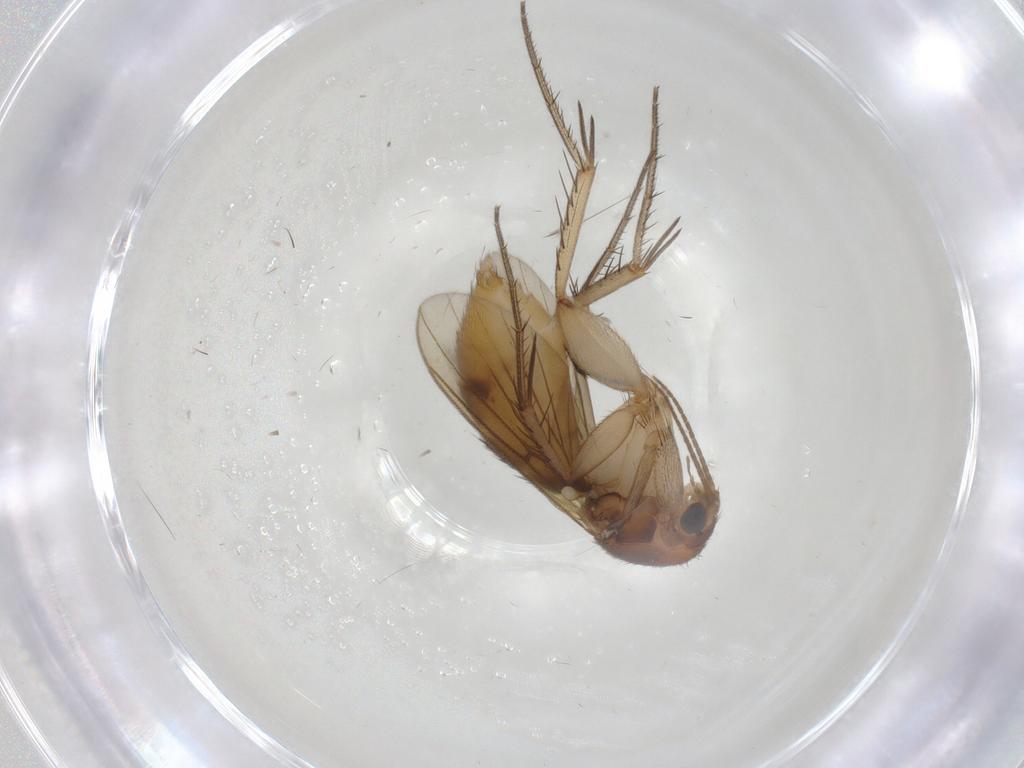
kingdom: Animalia
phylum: Arthropoda
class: Insecta
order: Diptera
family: Mycetophilidae
